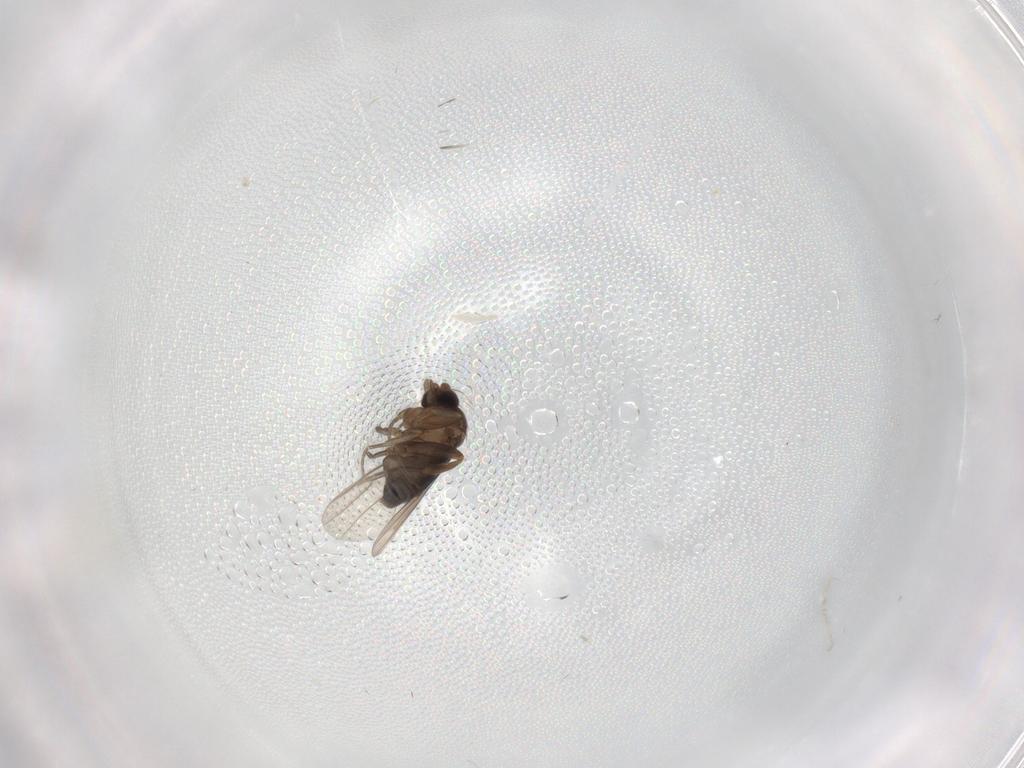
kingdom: Animalia
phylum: Arthropoda
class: Insecta
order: Diptera
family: Phoridae
